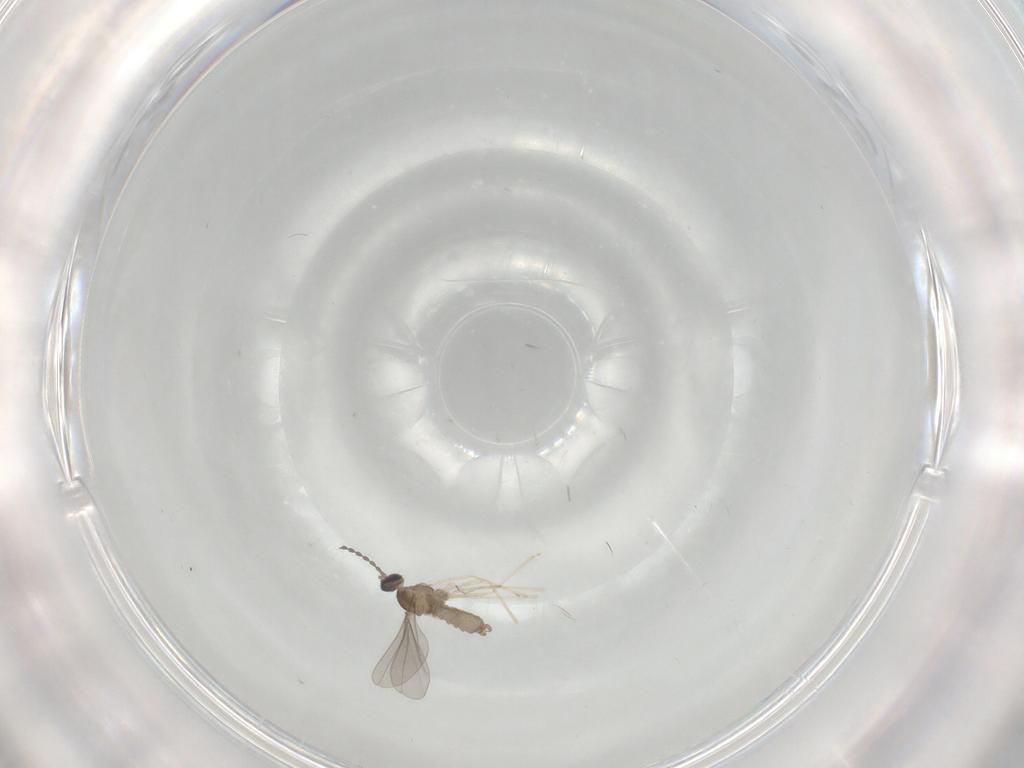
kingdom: Animalia
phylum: Arthropoda
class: Insecta
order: Diptera
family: Cecidomyiidae
